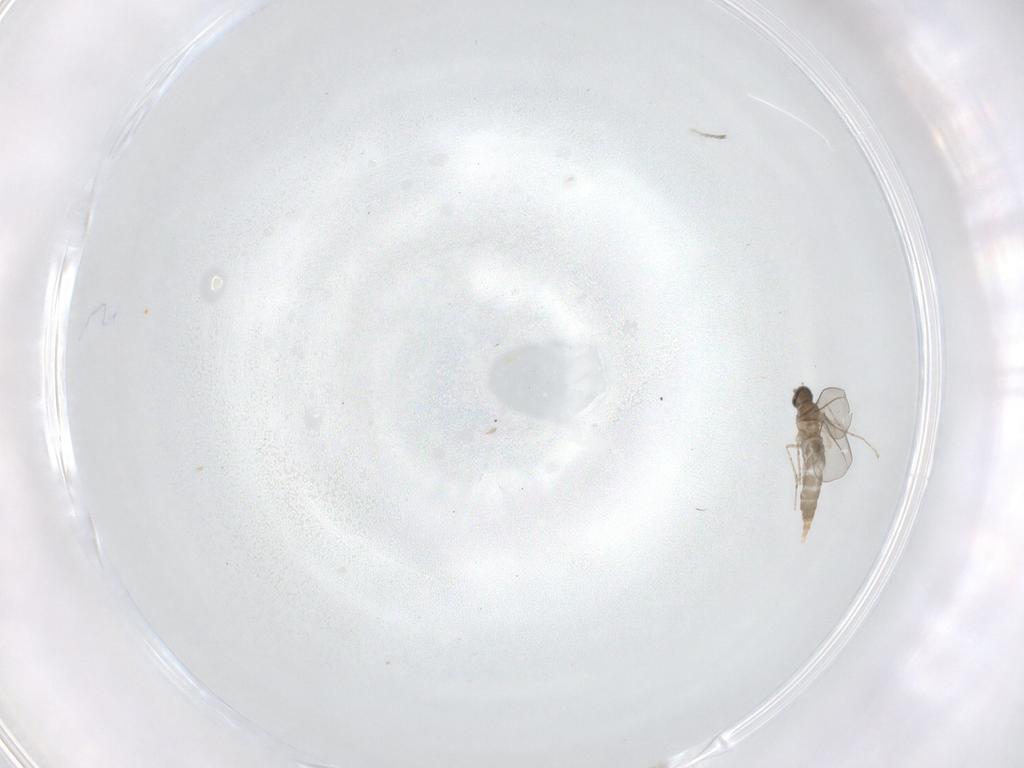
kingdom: Animalia
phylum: Arthropoda
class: Insecta
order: Diptera
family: Cecidomyiidae
